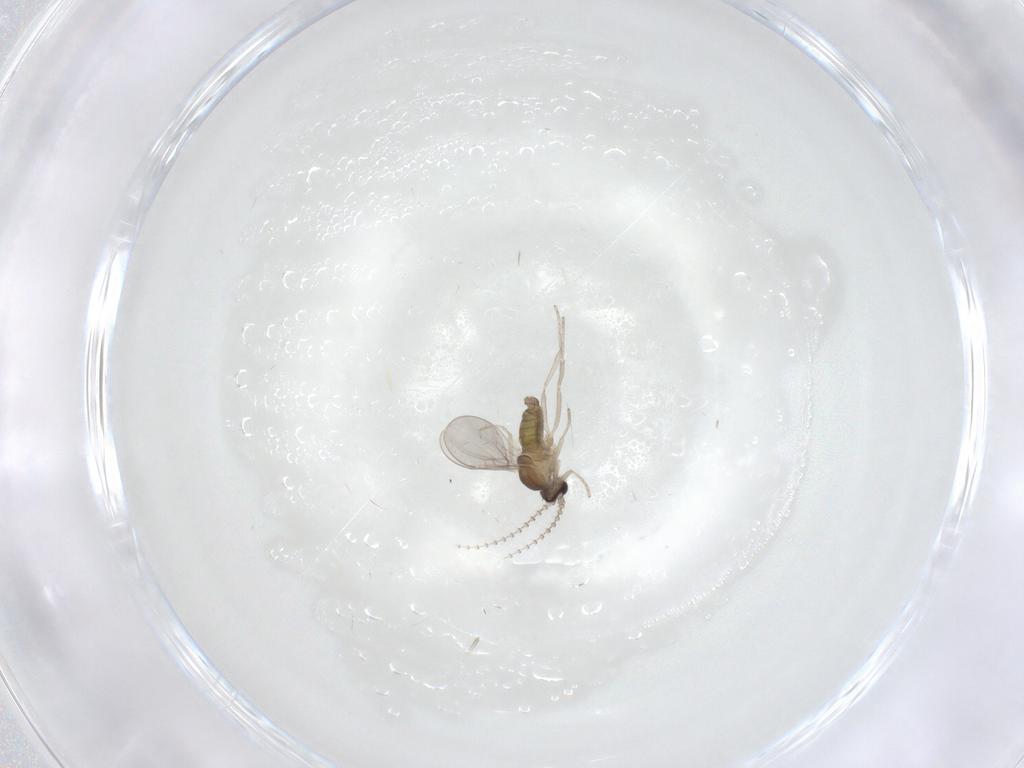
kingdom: Animalia
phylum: Arthropoda
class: Insecta
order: Diptera
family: Cecidomyiidae
